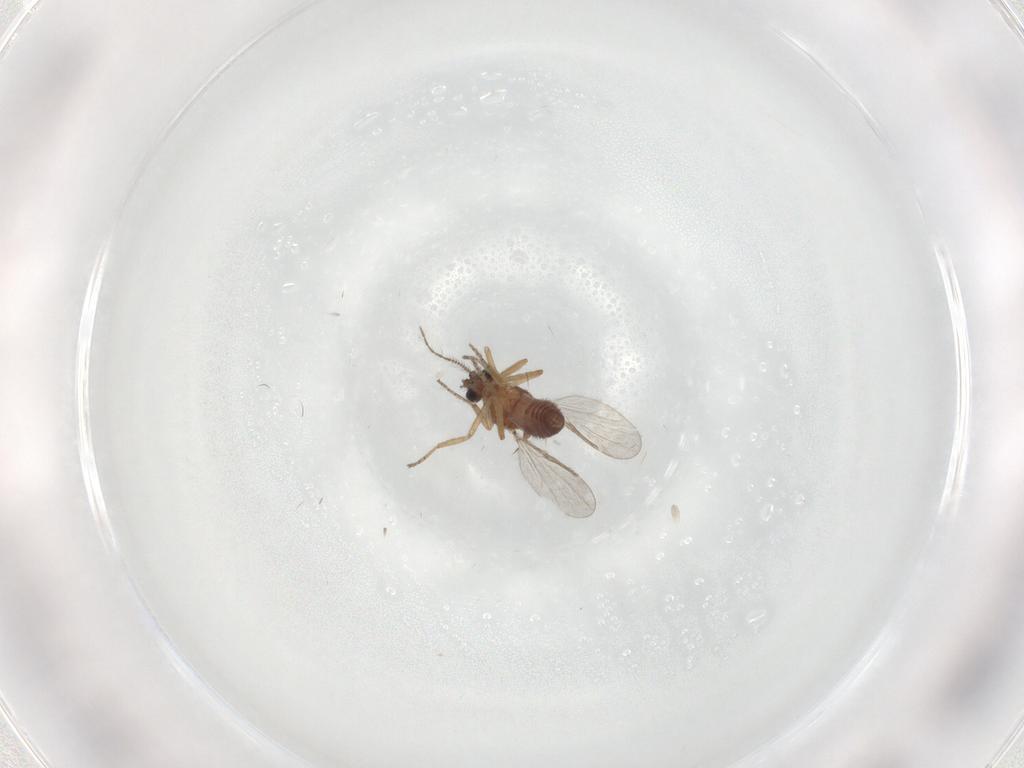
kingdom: Animalia
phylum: Arthropoda
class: Insecta
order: Diptera
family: Ceratopogonidae
